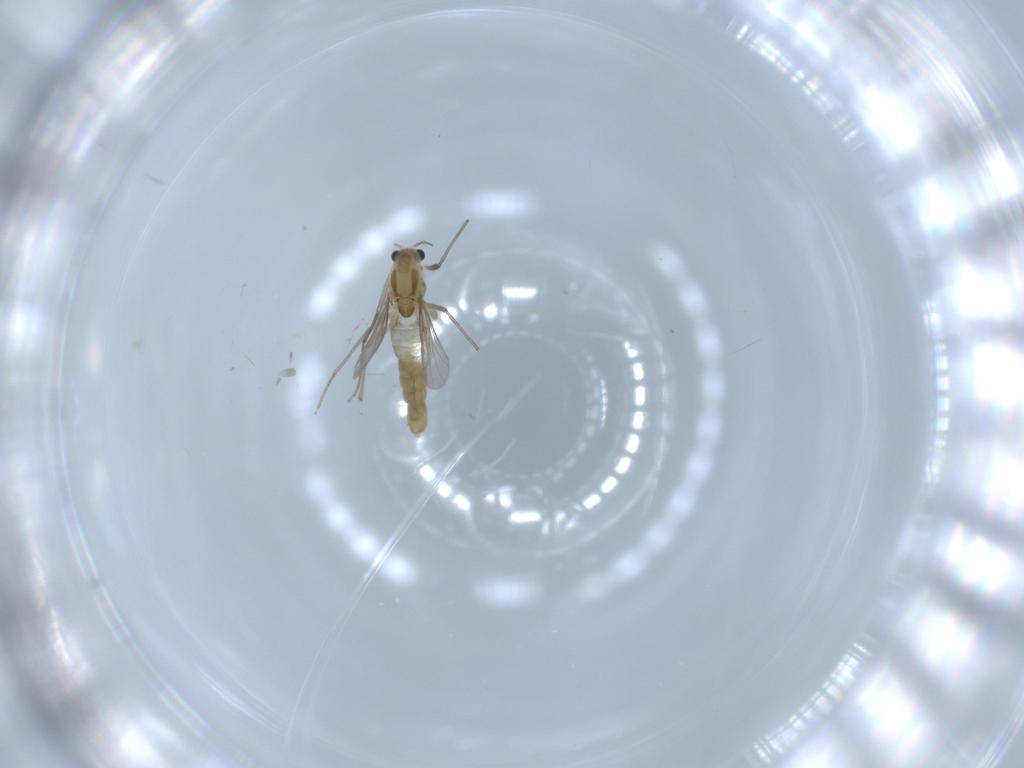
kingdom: Animalia
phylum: Arthropoda
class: Insecta
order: Diptera
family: Chironomidae
